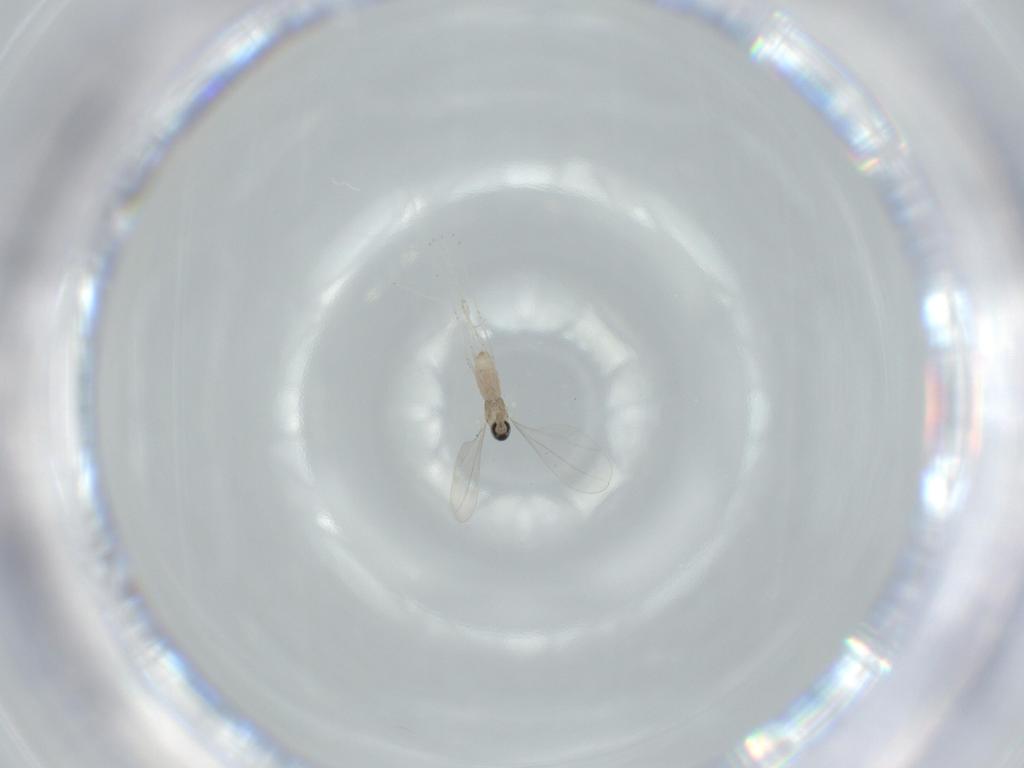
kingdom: Animalia
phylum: Arthropoda
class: Insecta
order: Diptera
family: Cecidomyiidae
